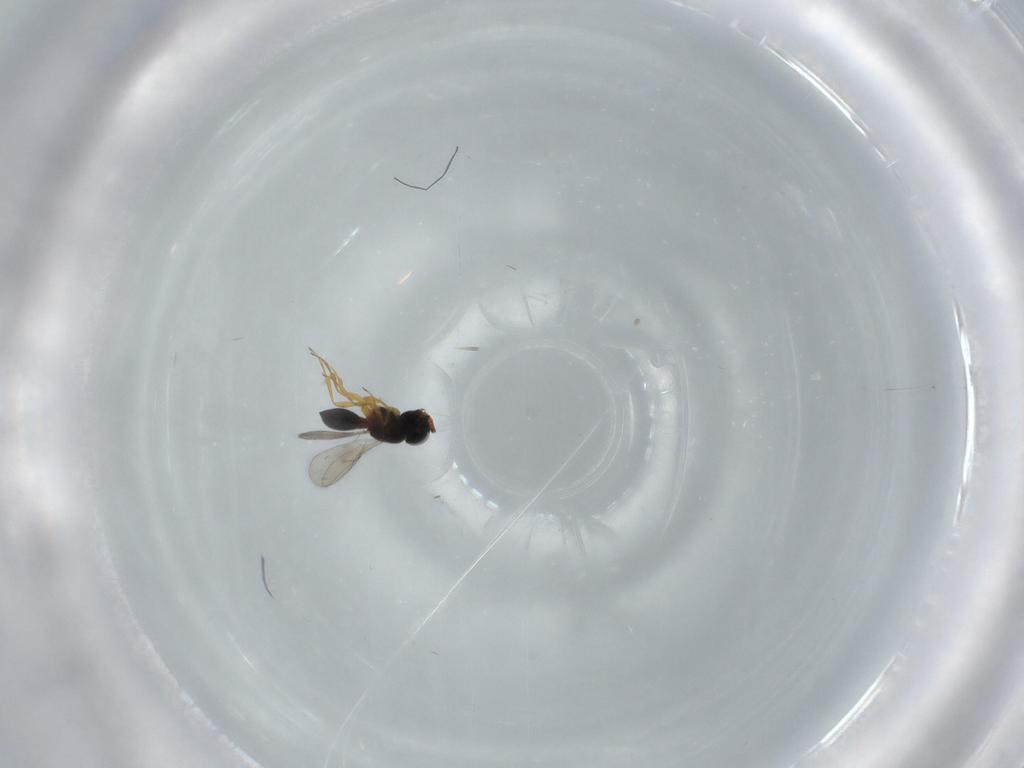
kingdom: Animalia
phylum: Arthropoda
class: Insecta
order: Hymenoptera
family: Scelionidae
